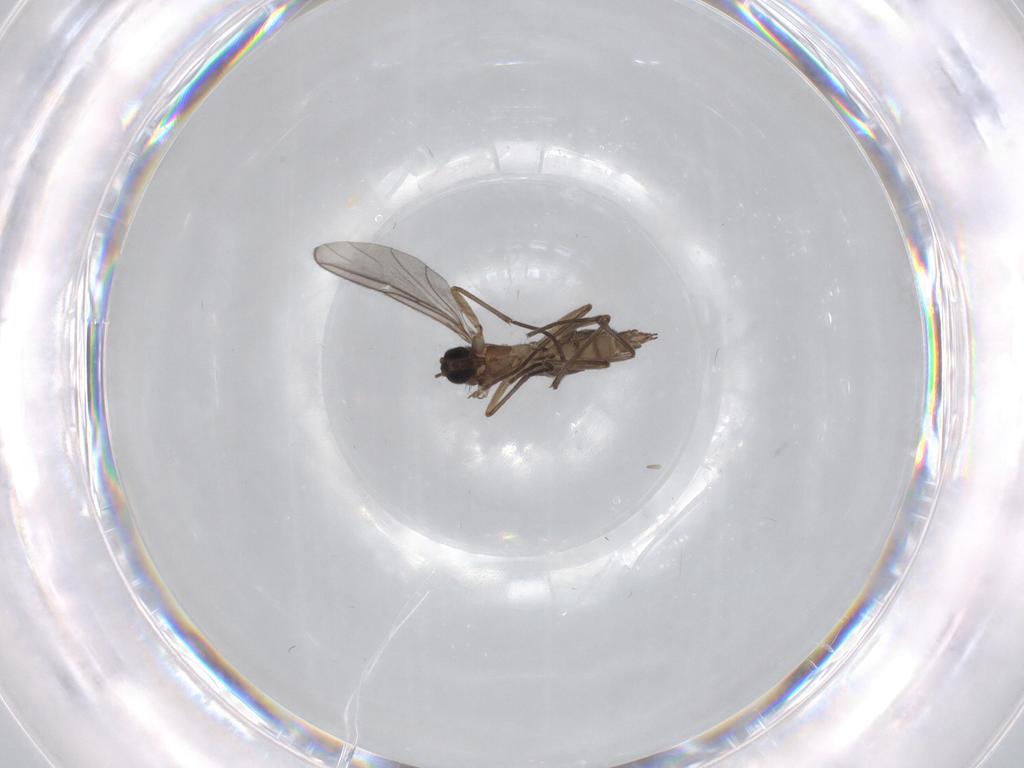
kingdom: Animalia
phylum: Arthropoda
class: Insecta
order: Diptera
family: Sciaridae
